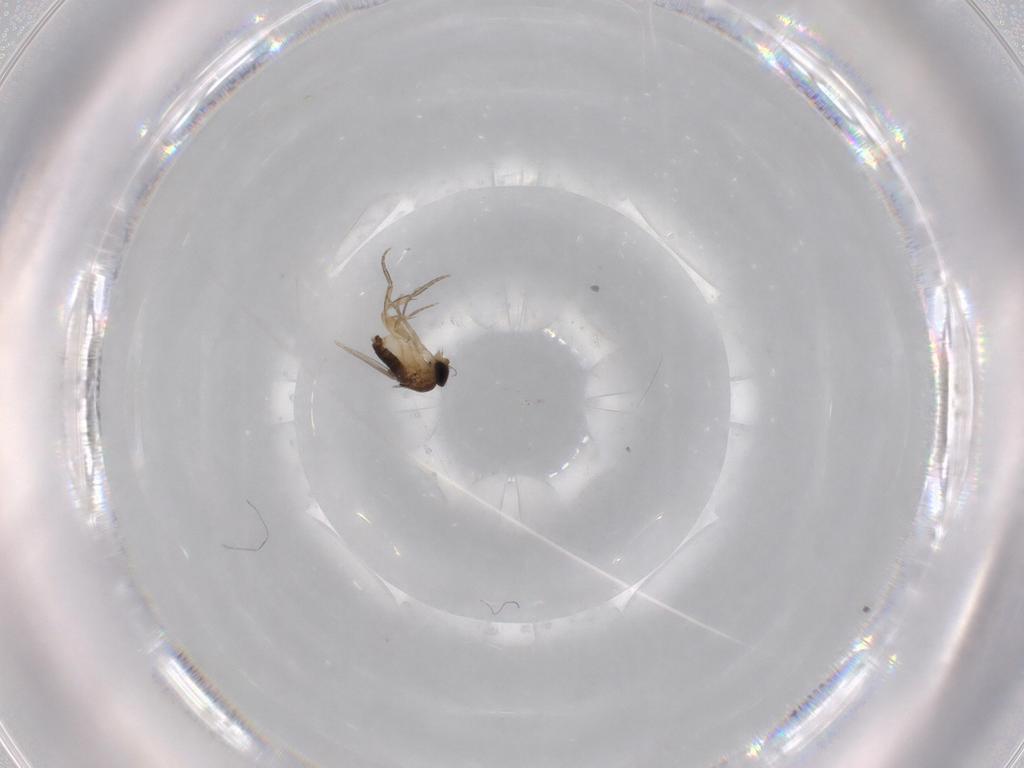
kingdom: Animalia
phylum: Arthropoda
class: Insecta
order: Diptera
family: Phoridae
